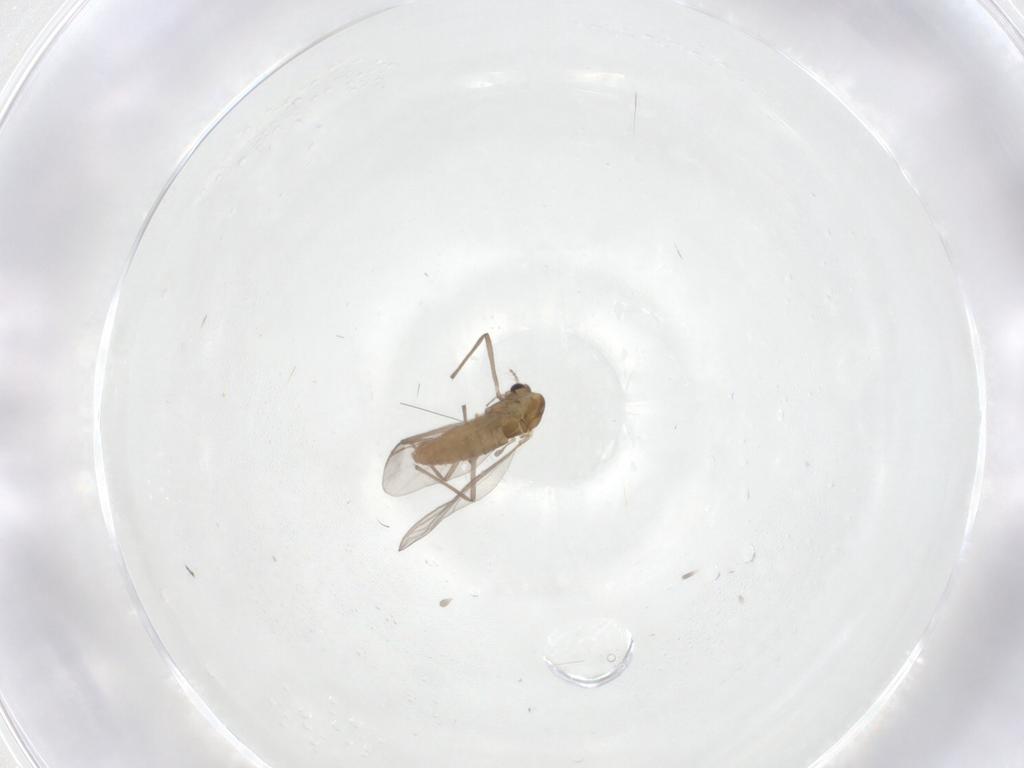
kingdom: Animalia
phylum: Arthropoda
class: Insecta
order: Diptera
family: Chironomidae
